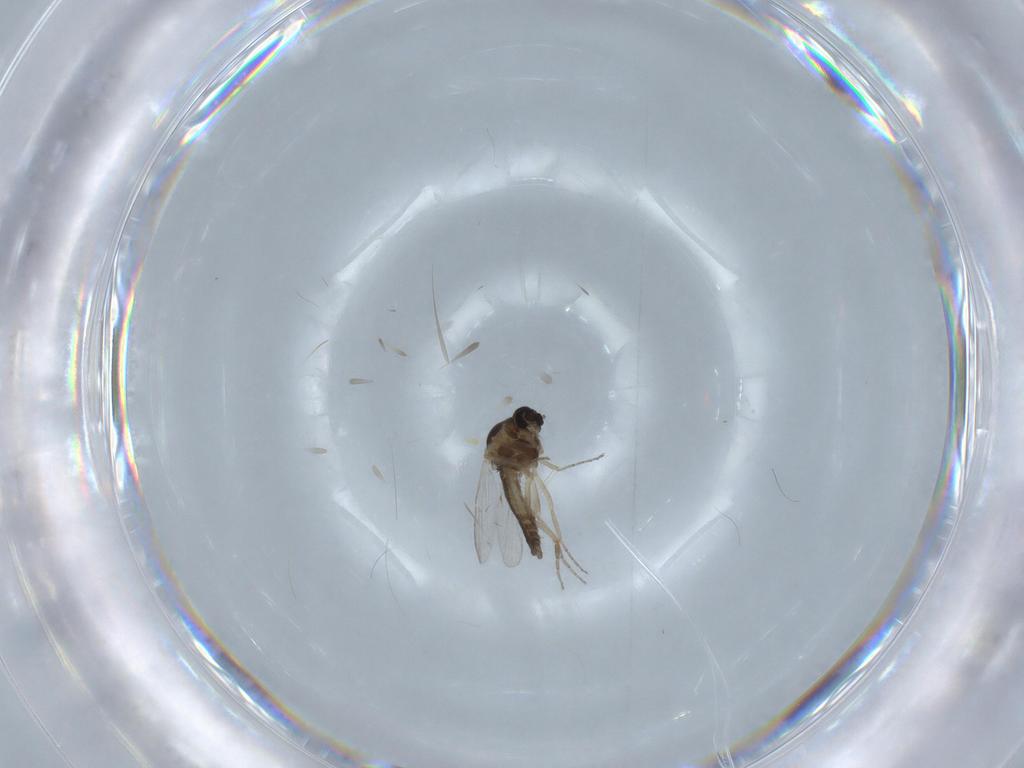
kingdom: Animalia
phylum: Arthropoda
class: Insecta
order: Diptera
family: Ceratopogonidae
